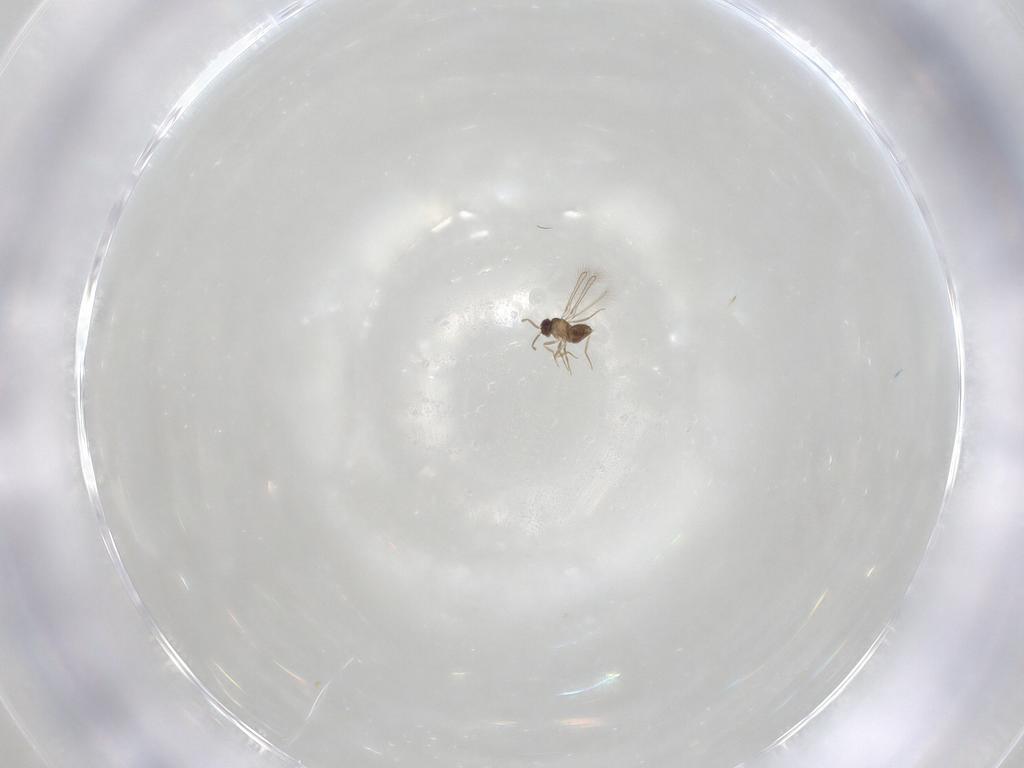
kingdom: Animalia
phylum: Arthropoda
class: Insecta
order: Hymenoptera
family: Mymaridae
